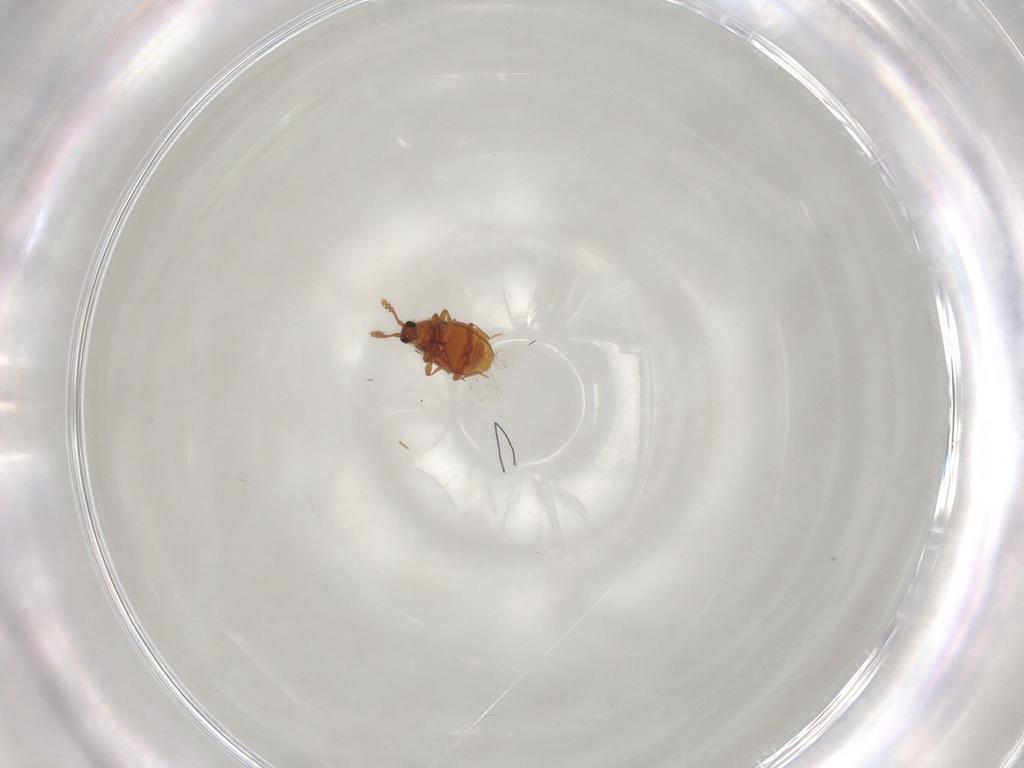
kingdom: Animalia
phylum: Arthropoda
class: Insecta
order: Coleoptera
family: Staphylinidae
